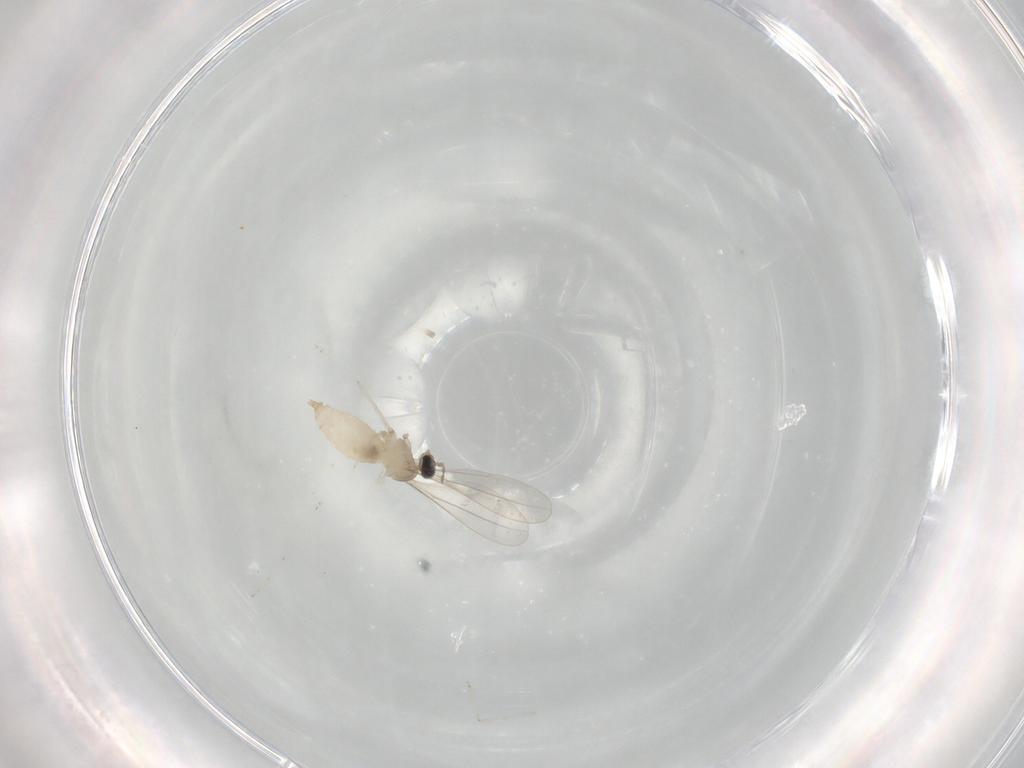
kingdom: Animalia
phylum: Arthropoda
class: Insecta
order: Diptera
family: Cecidomyiidae
